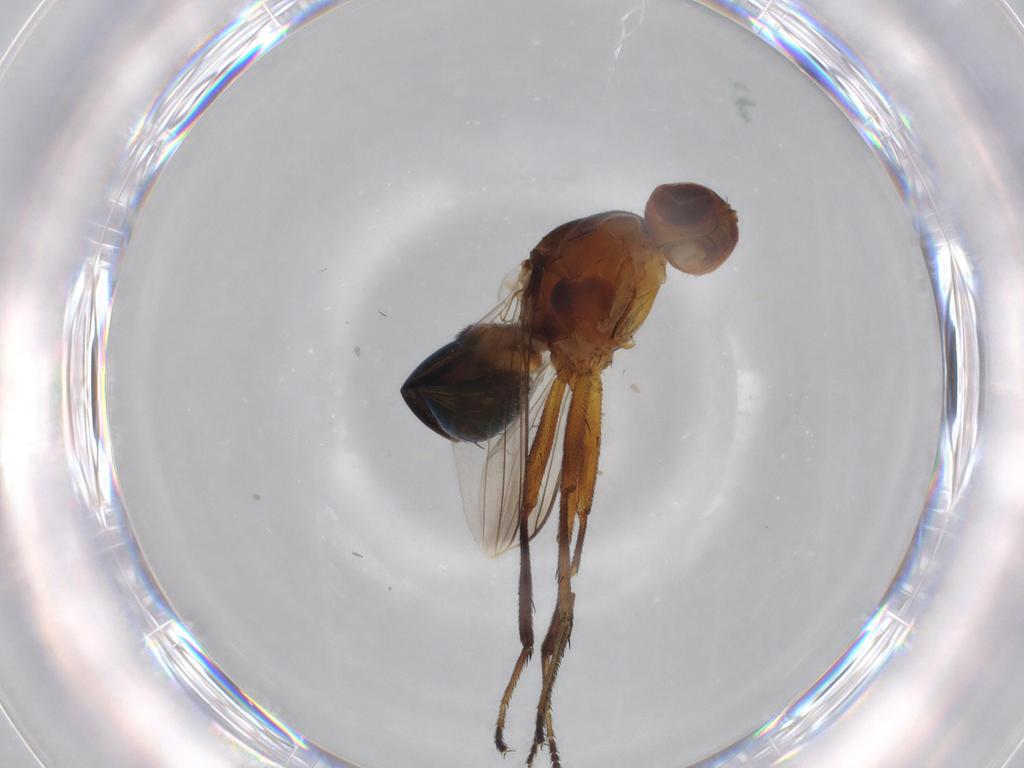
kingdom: Animalia
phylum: Arthropoda
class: Insecta
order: Diptera
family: Sepsidae
